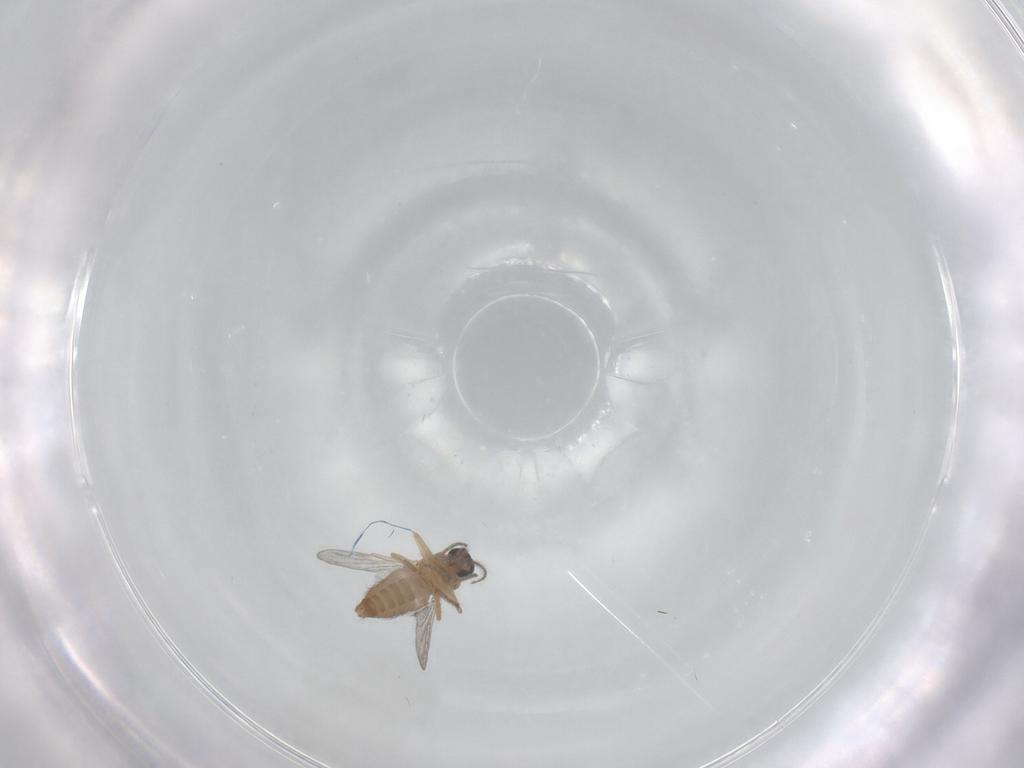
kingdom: Animalia
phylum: Arthropoda
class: Insecta
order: Diptera
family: Ceratopogonidae
